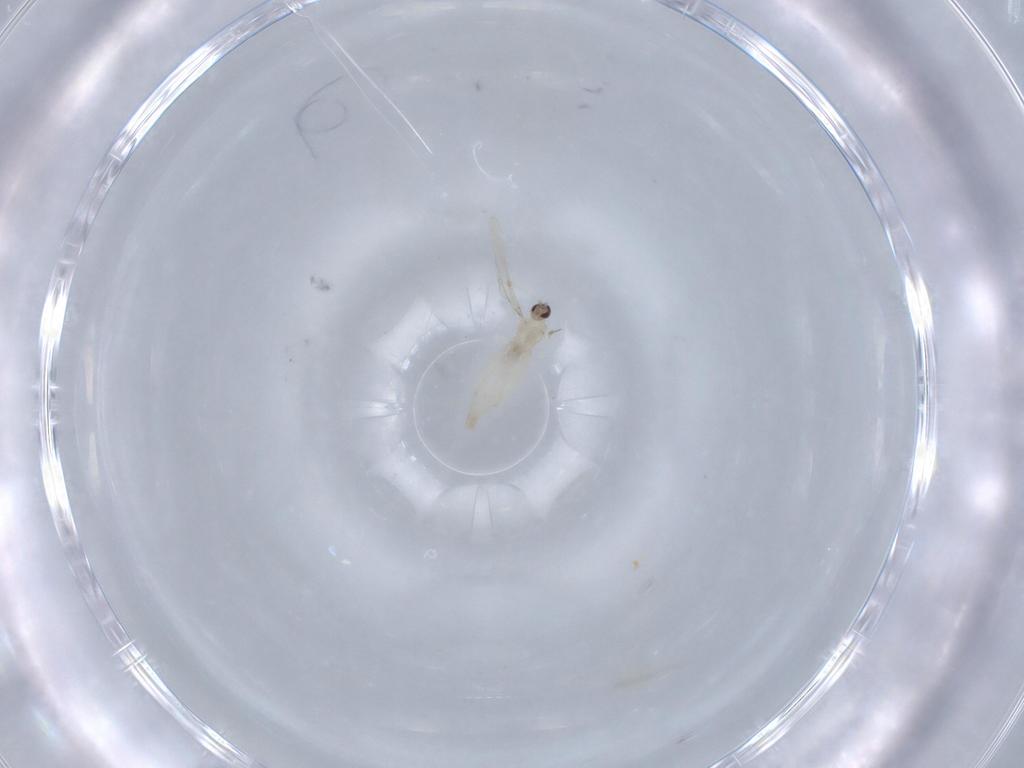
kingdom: Animalia
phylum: Arthropoda
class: Insecta
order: Diptera
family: Cecidomyiidae
